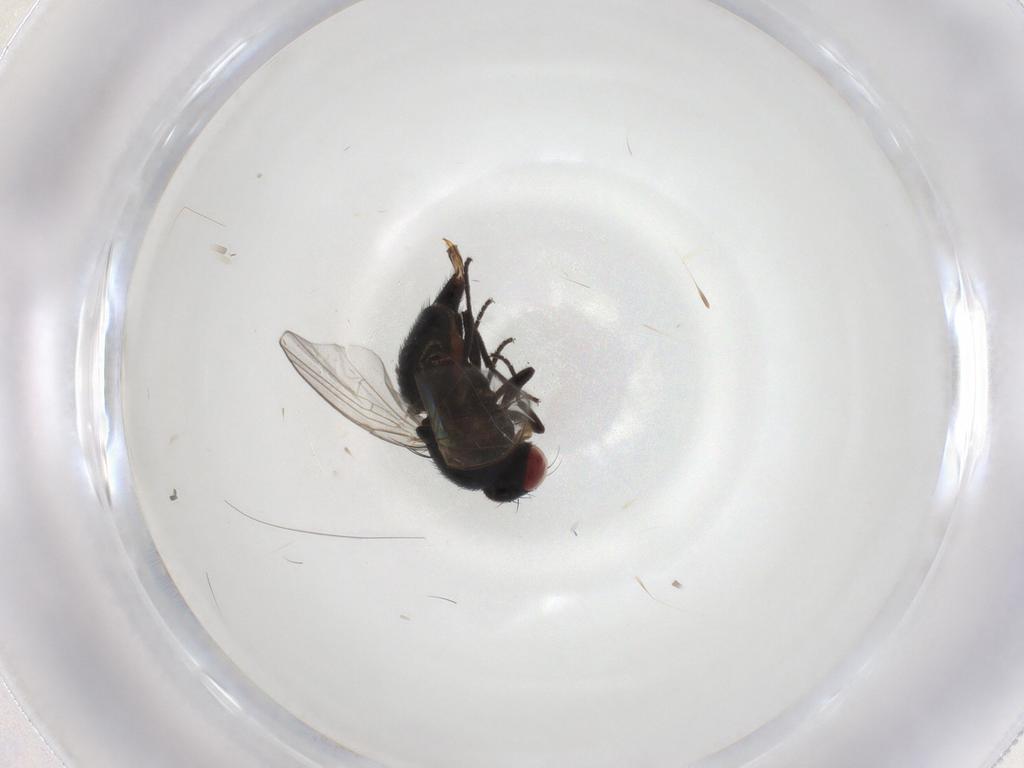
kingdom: Animalia
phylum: Arthropoda
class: Insecta
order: Diptera
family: Agromyzidae
